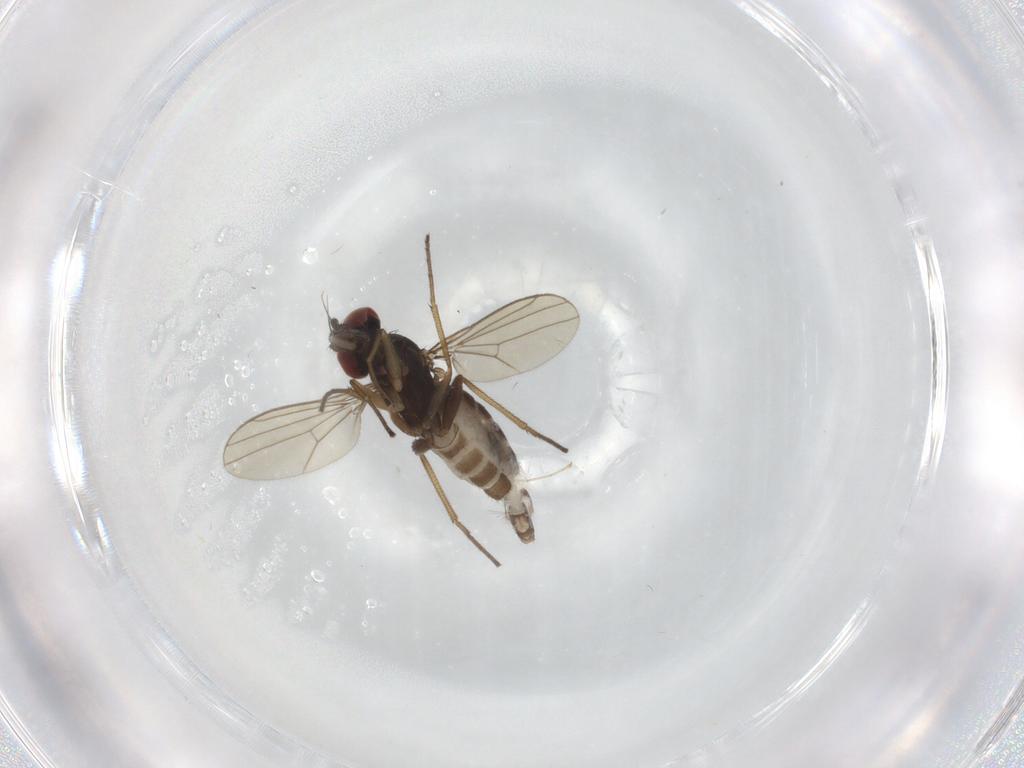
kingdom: Animalia
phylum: Arthropoda
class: Insecta
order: Diptera
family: Dolichopodidae
